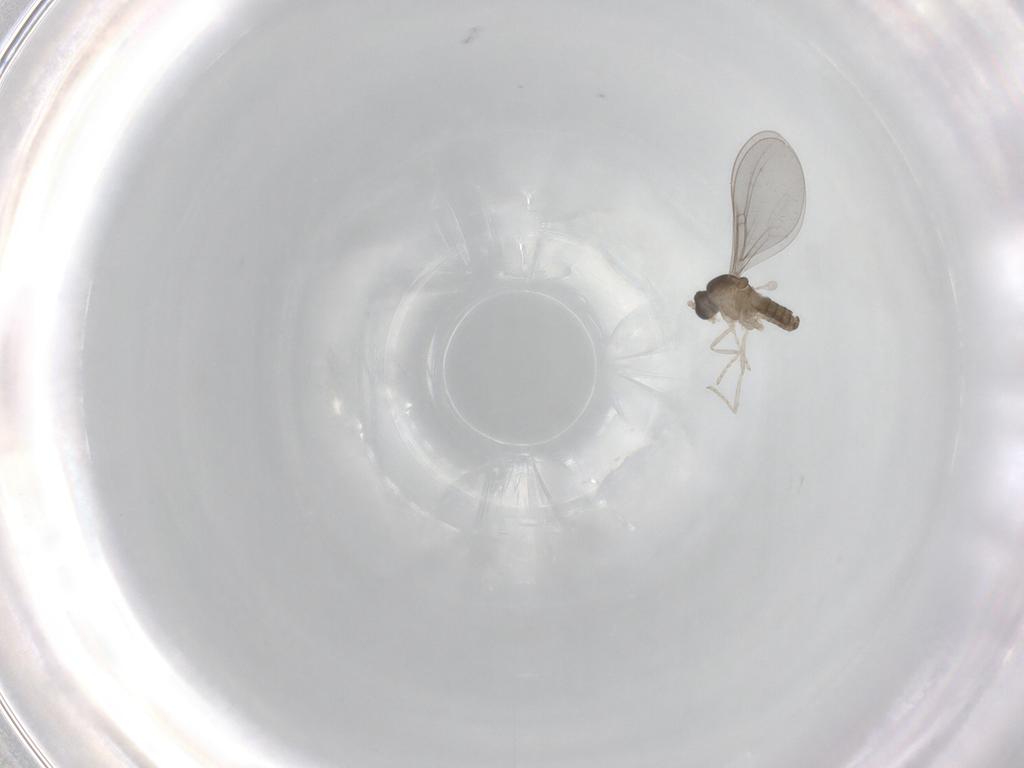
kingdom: Animalia
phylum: Arthropoda
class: Insecta
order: Diptera
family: Cecidomyiidae
